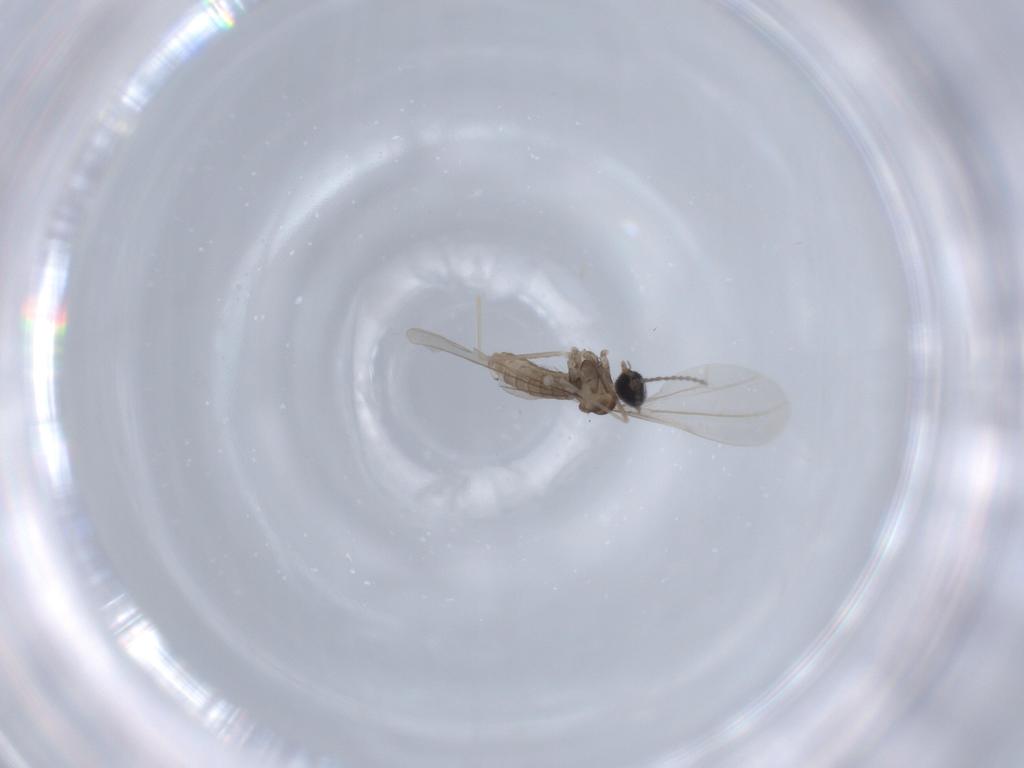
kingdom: Animalia
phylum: Arthropoda
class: Insecta
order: Diptera
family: Cecidomyiidae
